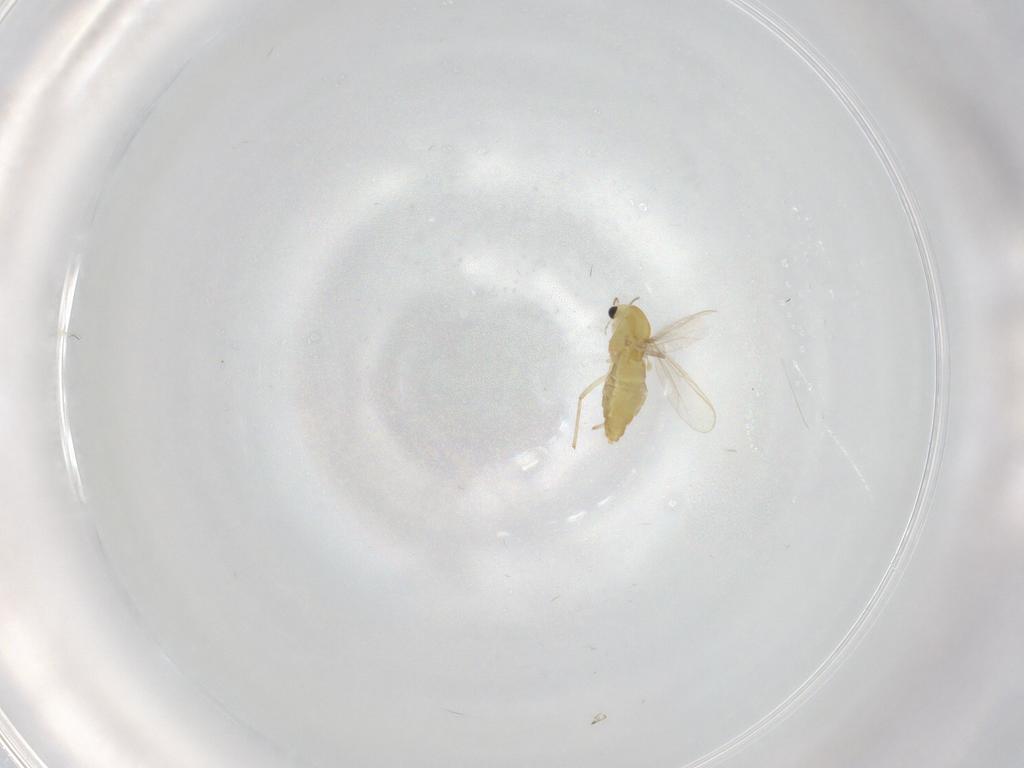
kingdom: Animalia
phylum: Arthropoda
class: Insecta
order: Diptera
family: Chironomidae
